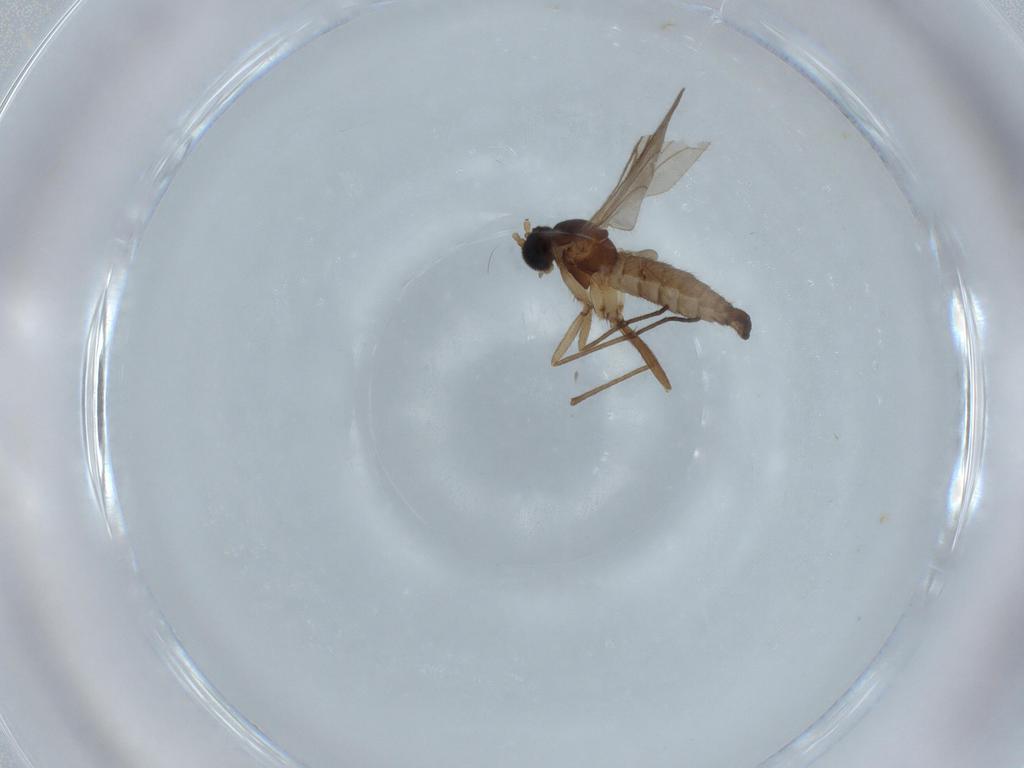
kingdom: Animalia
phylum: Arthropoda
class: Insecta
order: Diptera
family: Sciaridae
